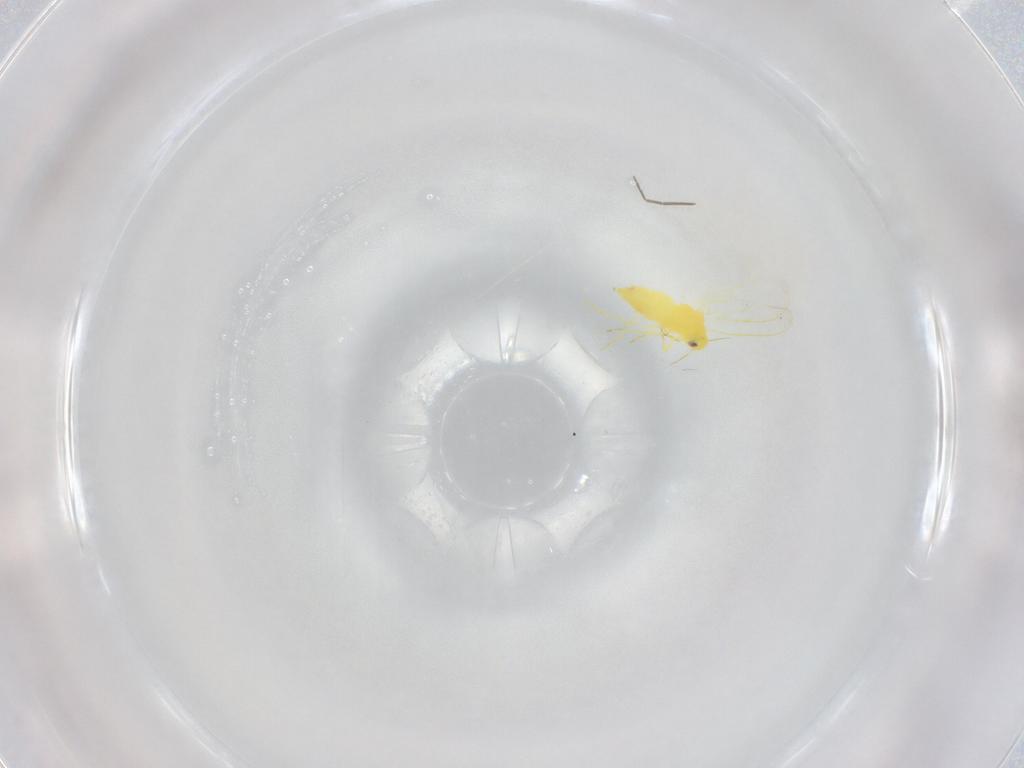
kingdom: Animalia
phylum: Arthropoda
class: Insecta
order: Hemiptera
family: Aleyrodidae
